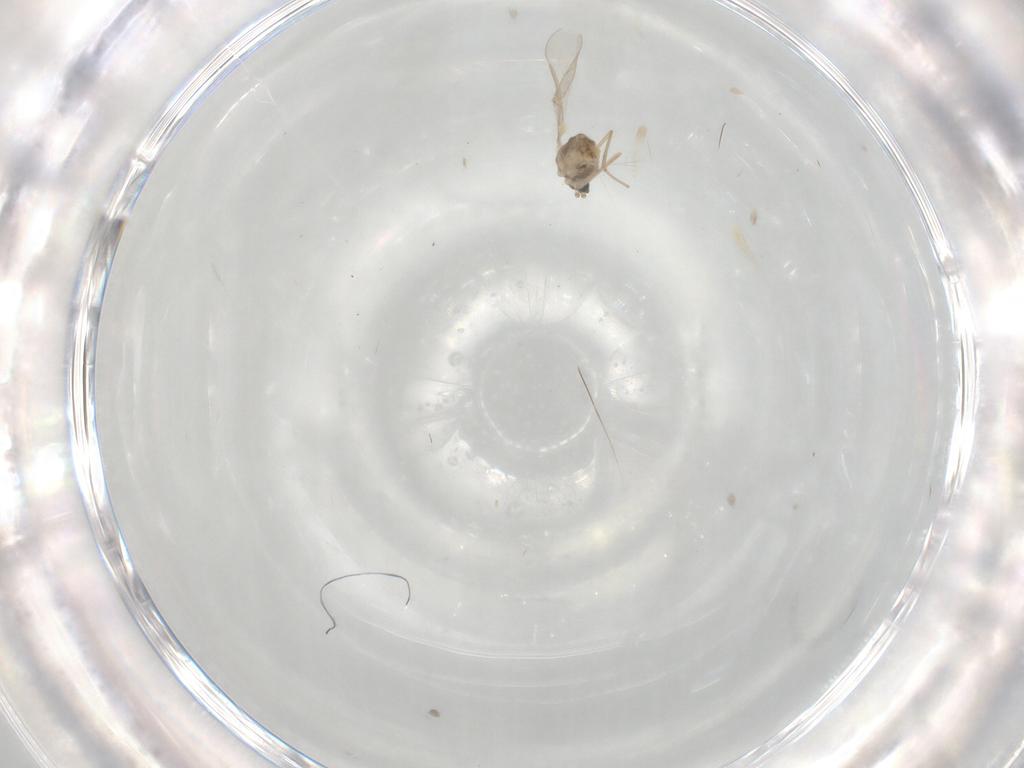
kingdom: Animalia
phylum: Arthropoda
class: Insecta
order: Diptera
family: Cecidomyiidae
